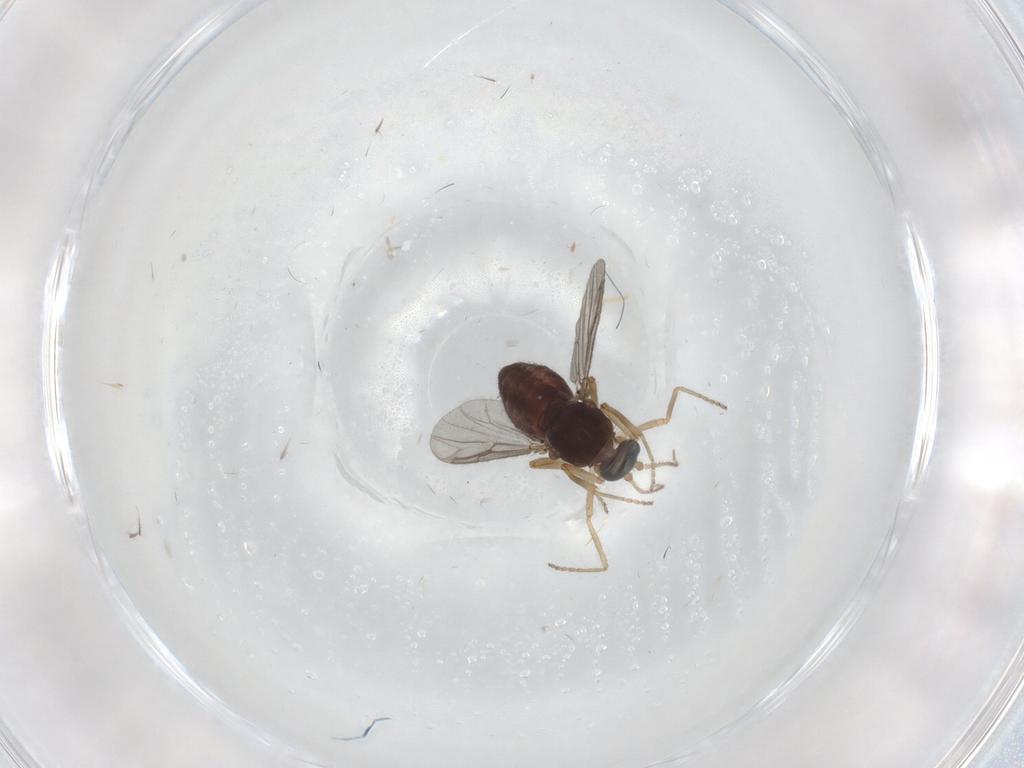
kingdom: Animalia
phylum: Arthropoda
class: Insecta
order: Diptera
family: Ceratopogonidae
